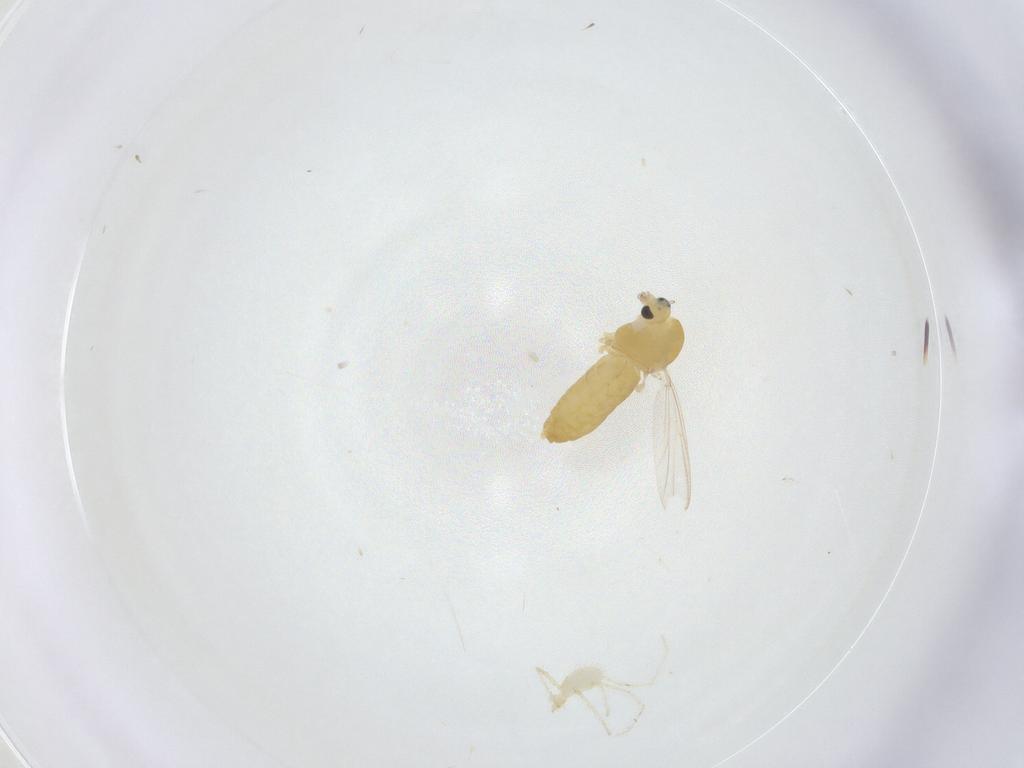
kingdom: Animalia
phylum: Arthropoda
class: Insecta
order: Diptera
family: Chironomidae
